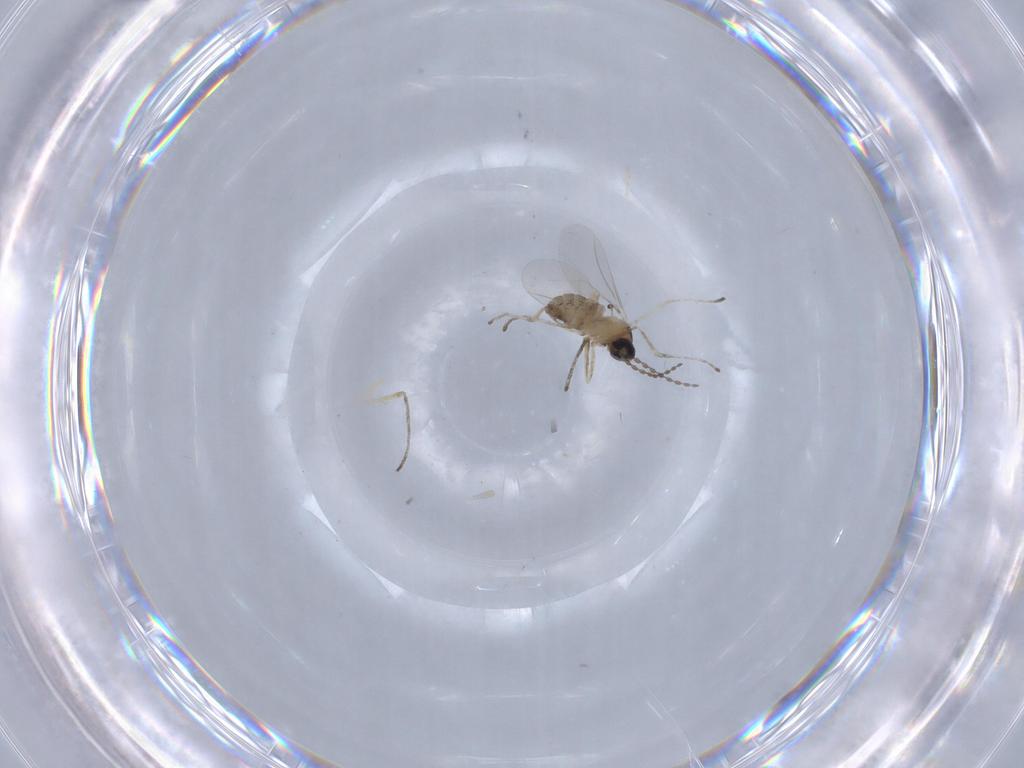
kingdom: Animalia
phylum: Arthropoda
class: Insecta
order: Diptera
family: Cecidomyiidae
